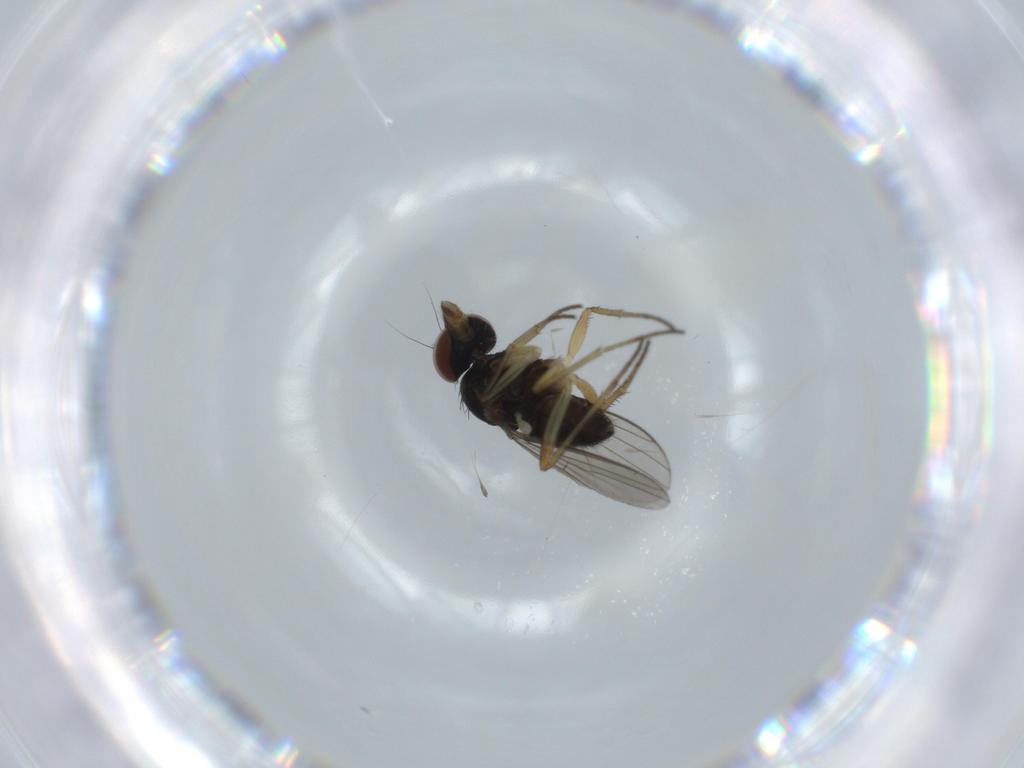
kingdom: Animalia
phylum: Arthropoda
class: Insecta
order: Diptera
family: Dolichopodidae
